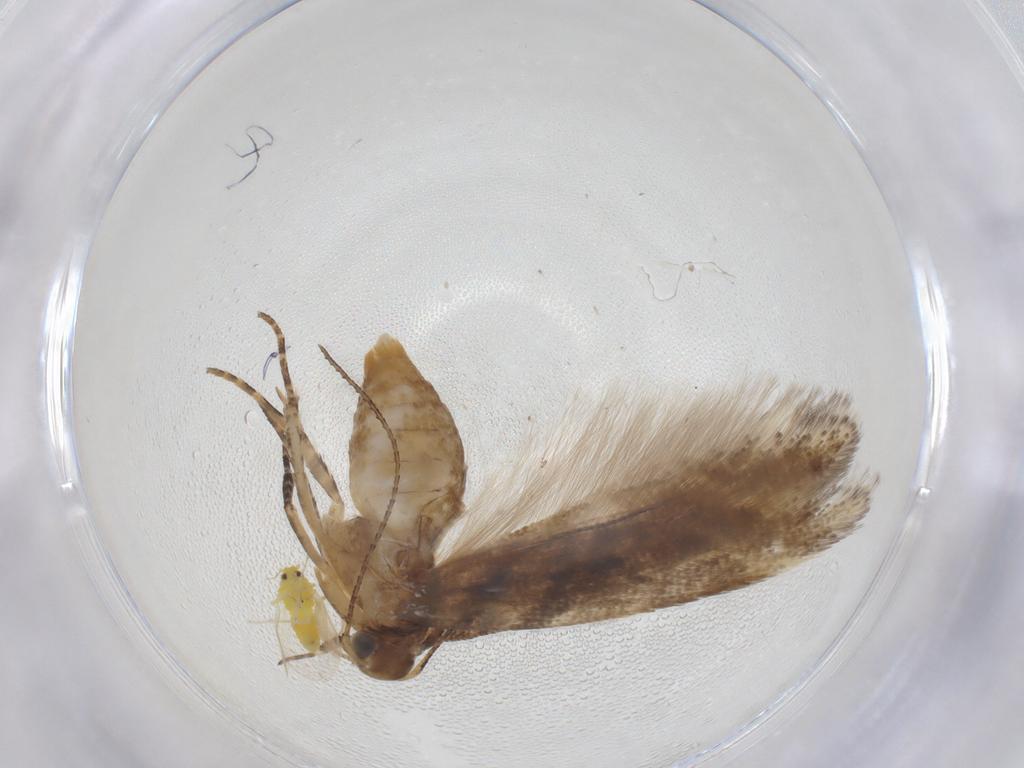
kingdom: Animalia
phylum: Arthropoda
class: Insecta
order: Lepidoptera
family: Gelechiidae
